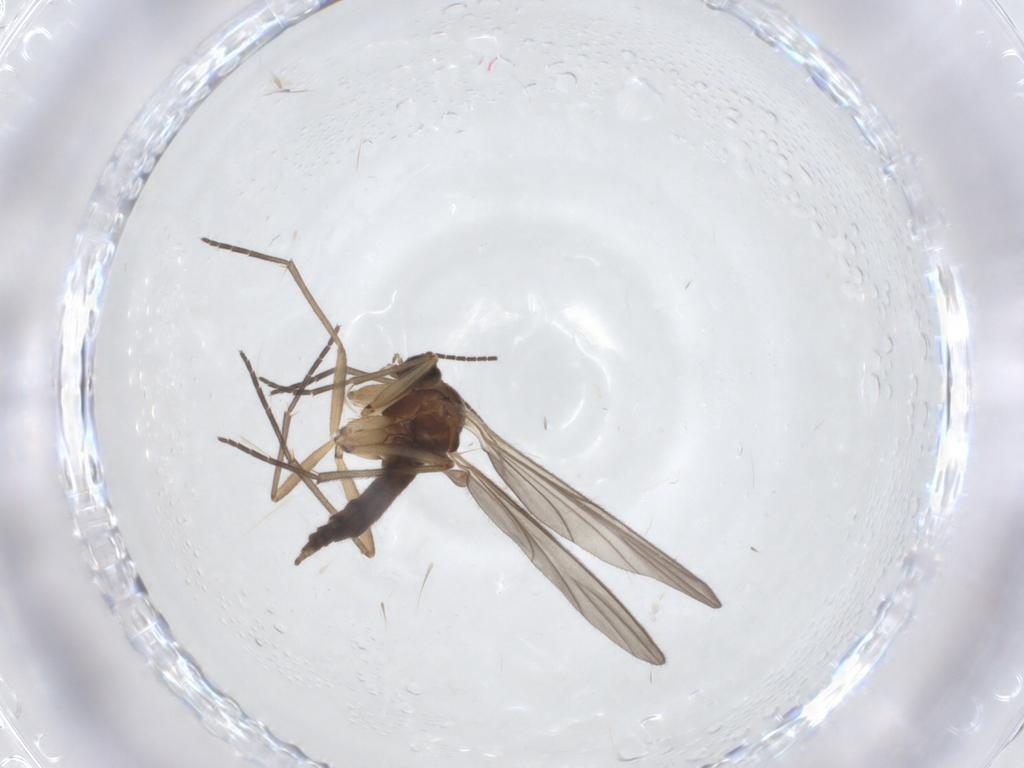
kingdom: Animalia
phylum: Arthropoda
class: Insecta
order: Diptera
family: Sciaridae
